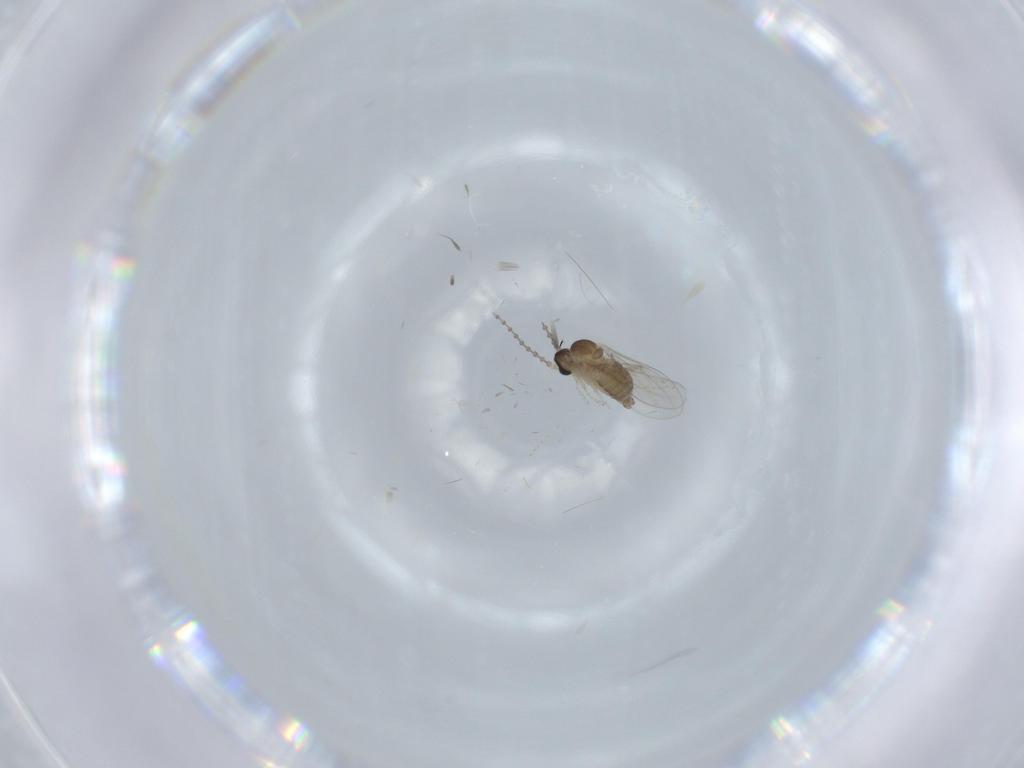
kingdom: Animalia
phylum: Arthropoda
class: Insecta
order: Diptera
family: Cecidomyiidae
